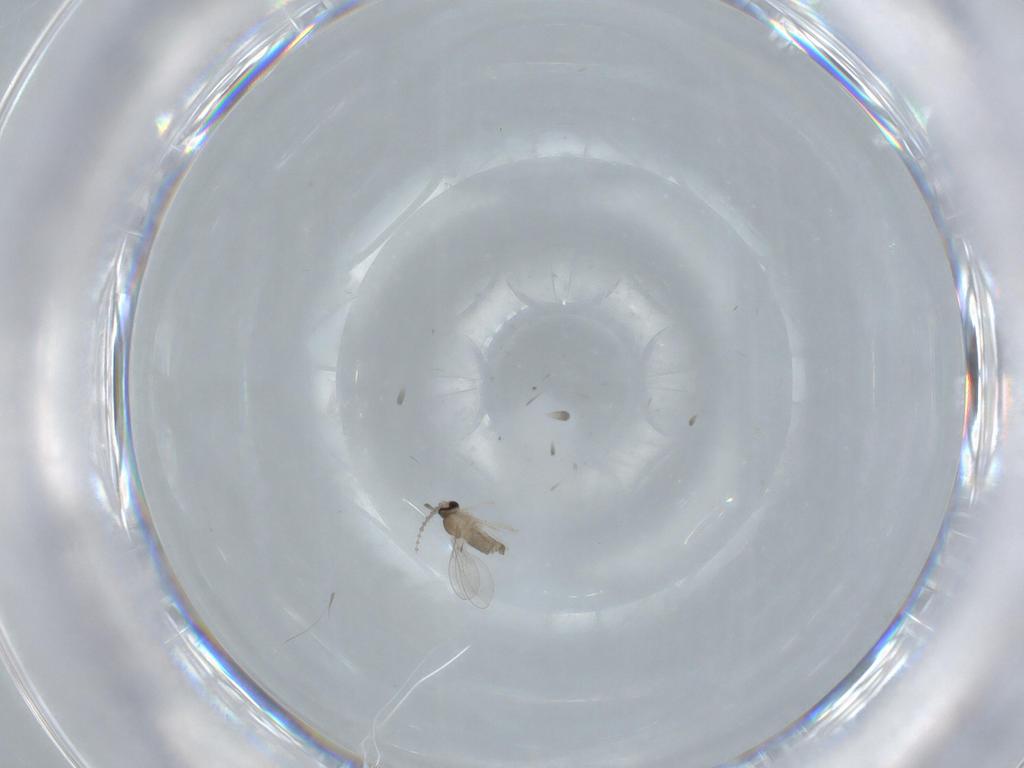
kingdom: Animalia
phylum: Arthropoda
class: Insecta
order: Diptera
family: Cecidomyiidae
